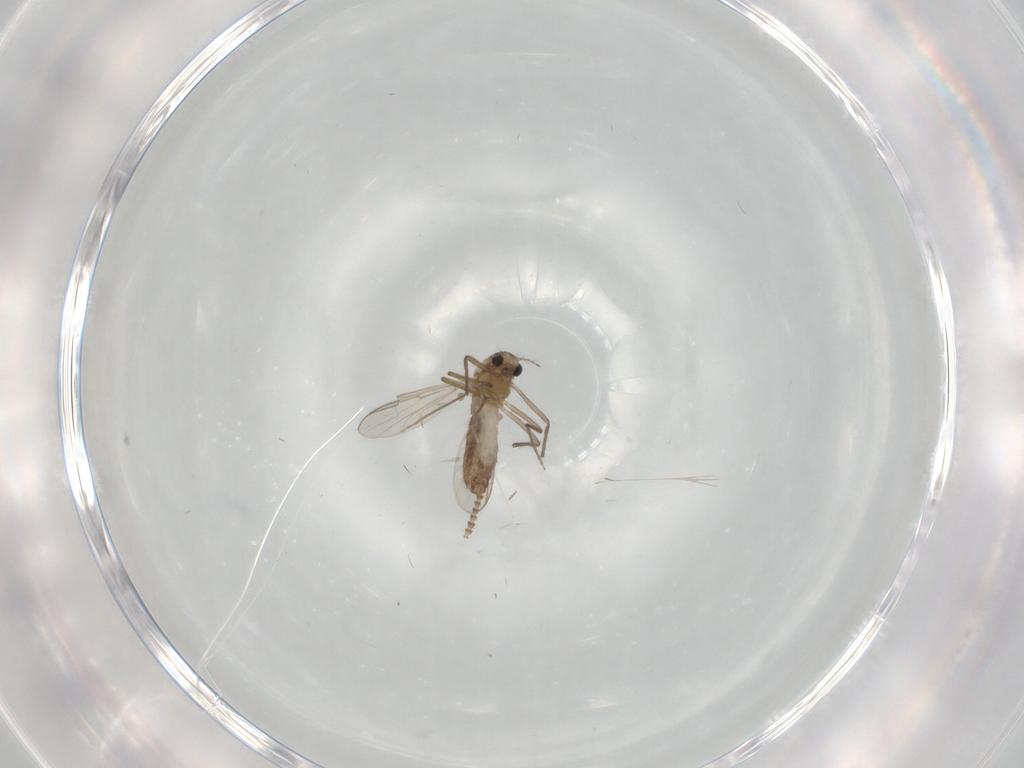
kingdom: Animalia
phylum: Arthropoda
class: Insecta
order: Diptera
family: Chironomidae
